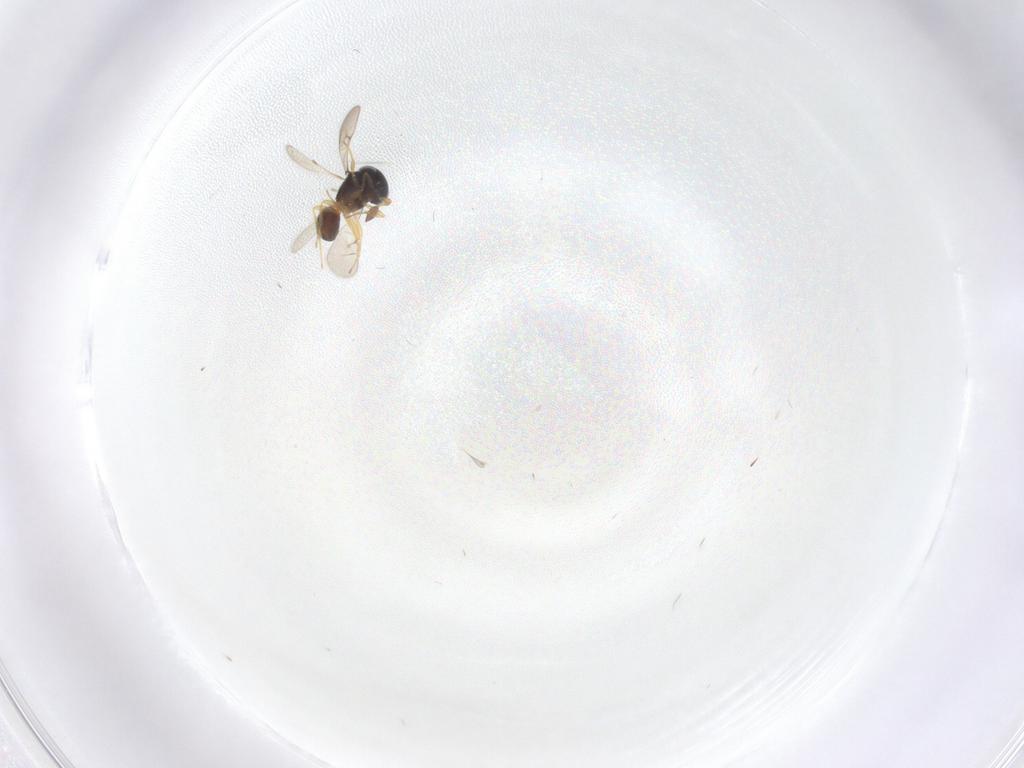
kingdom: Animalia
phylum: Arthropoda
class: Insecta
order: Hymenoptera
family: Scelionidae
